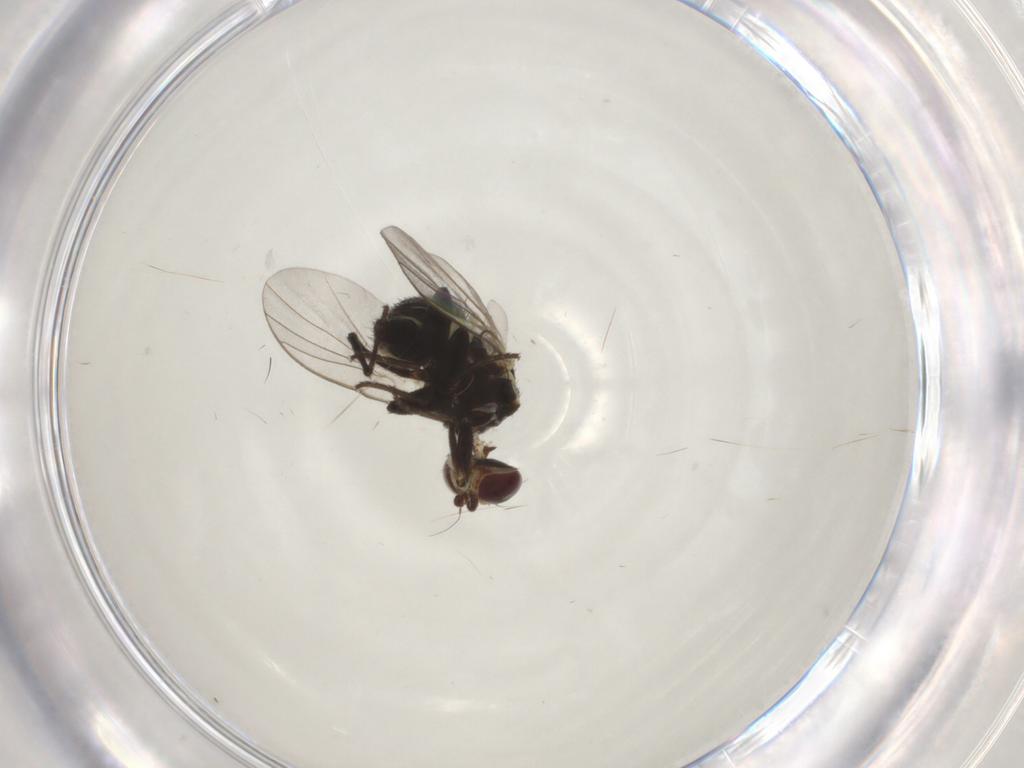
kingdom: Animalia
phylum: Arthropoda
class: Insecta
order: Diptera
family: Agromyzidae
